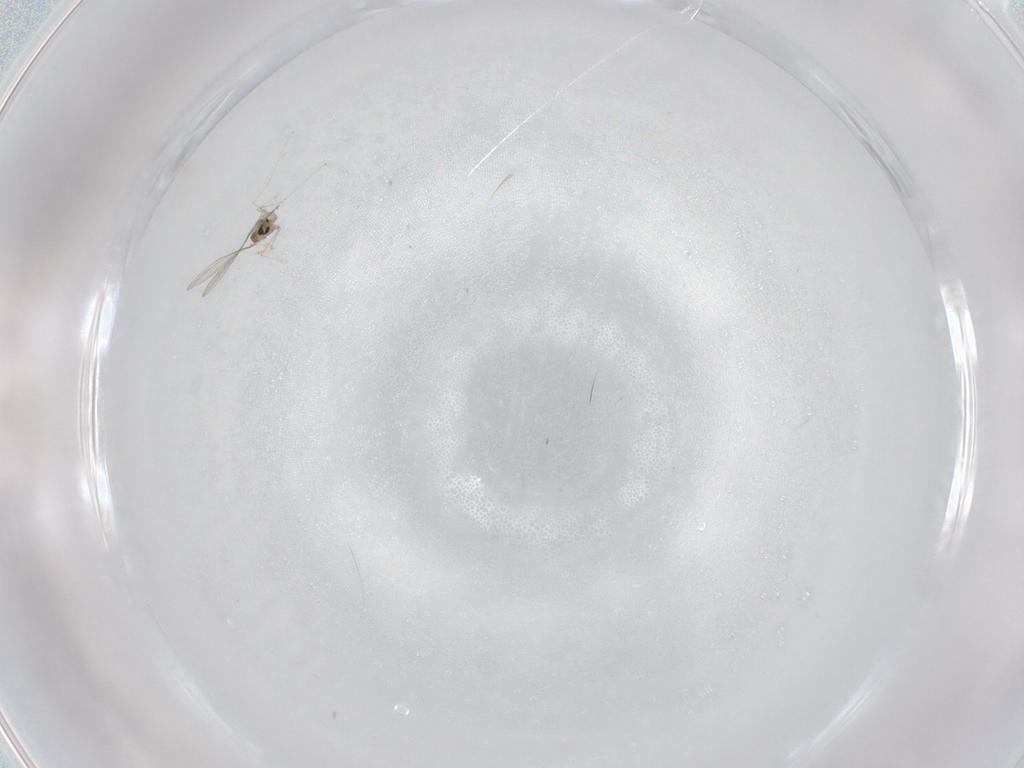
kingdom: Animalia
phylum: Arthropoda
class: Insecta
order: Diptera
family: Cecidomyiidae
